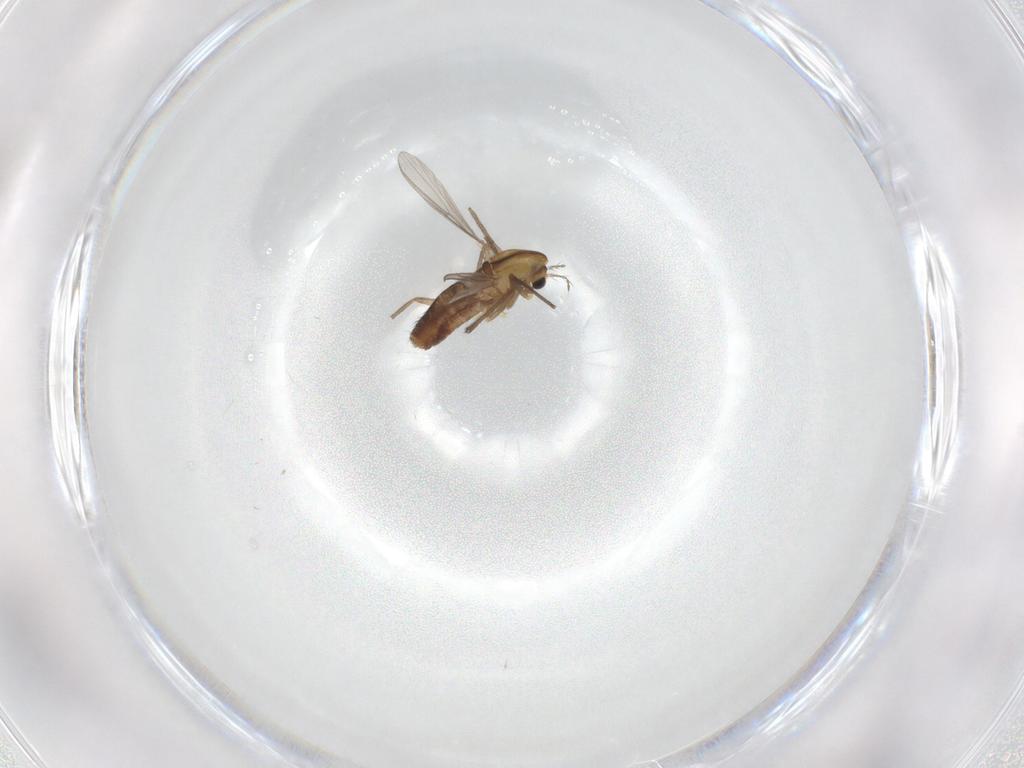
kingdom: Animalia
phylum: Arthropoda
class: Insecta
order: Diptera
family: Chironomidae
